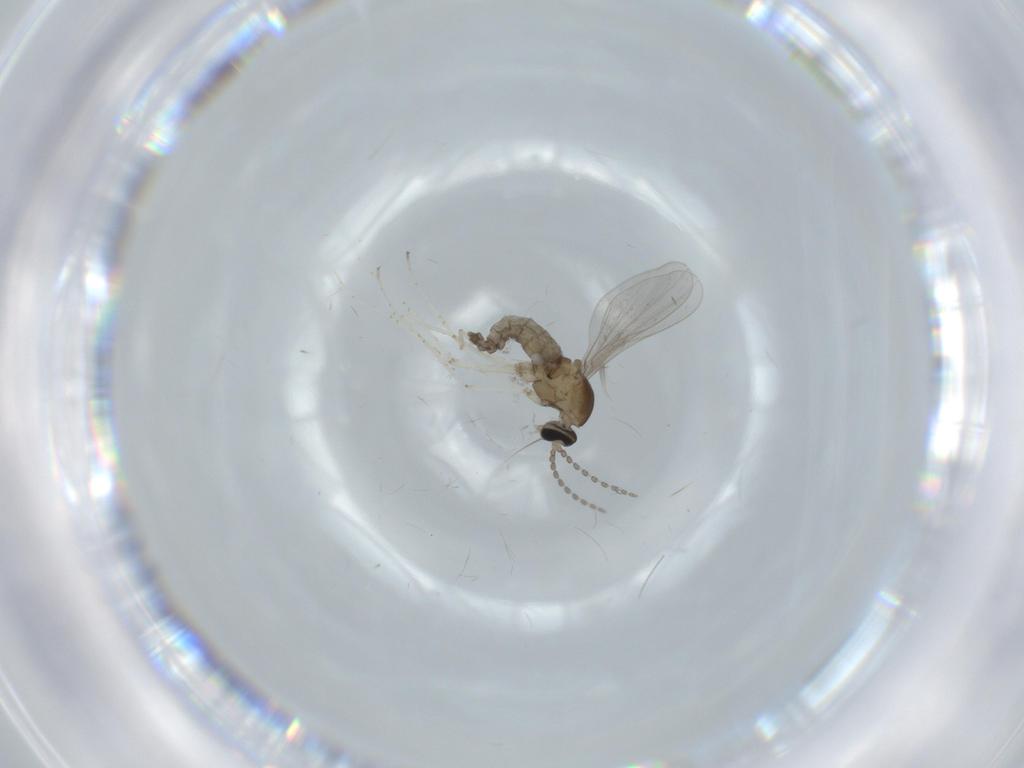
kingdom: Animalia
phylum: Arthropoda
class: Insecta
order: Diptera
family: Cecidomyiidae
